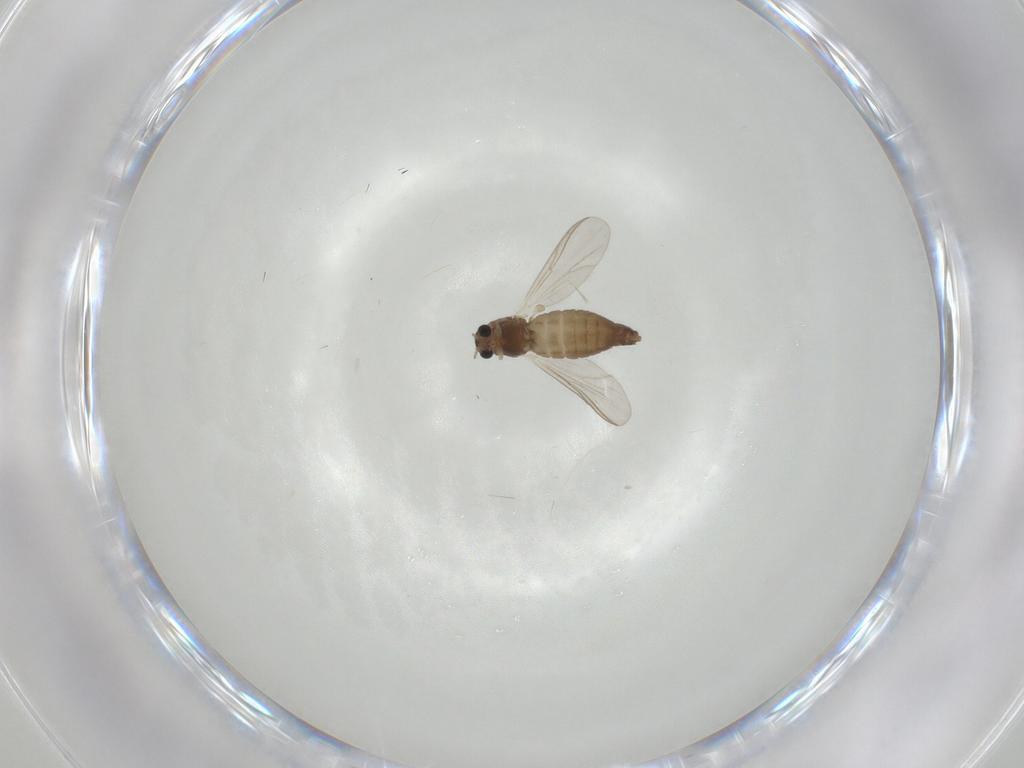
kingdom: Animalia
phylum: Arthropoda
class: Insecta
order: Diptera
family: Chironomidae
